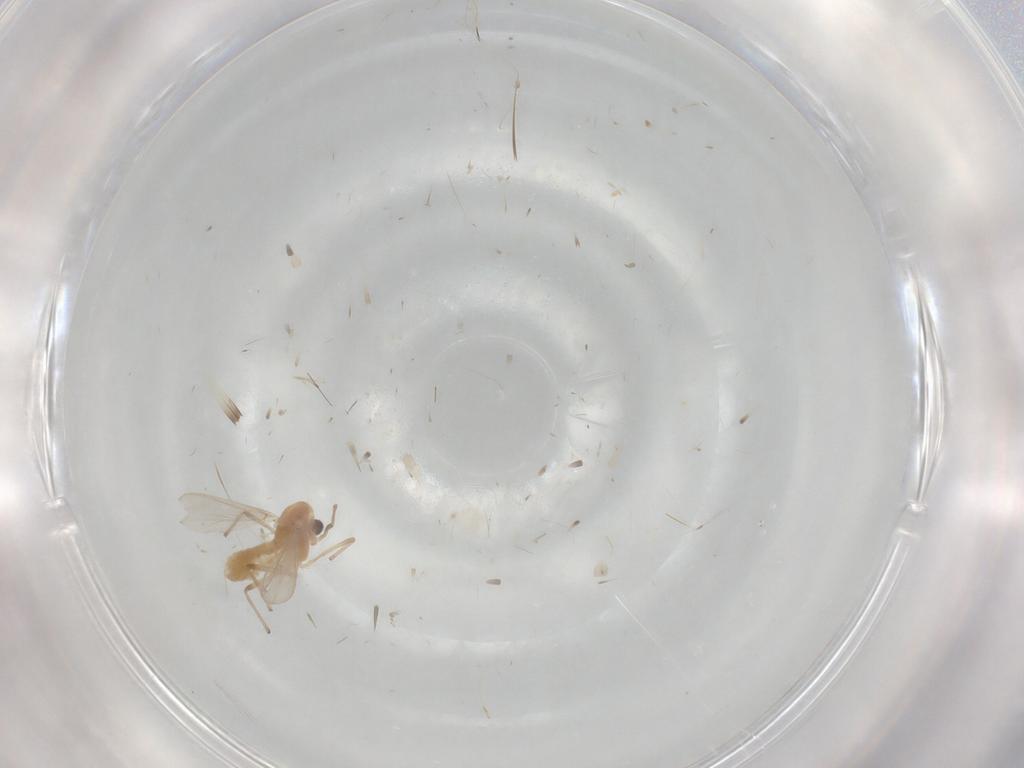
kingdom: Animalia
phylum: Arthropoda
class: Insecta
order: Diptera
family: Chaoboridae
